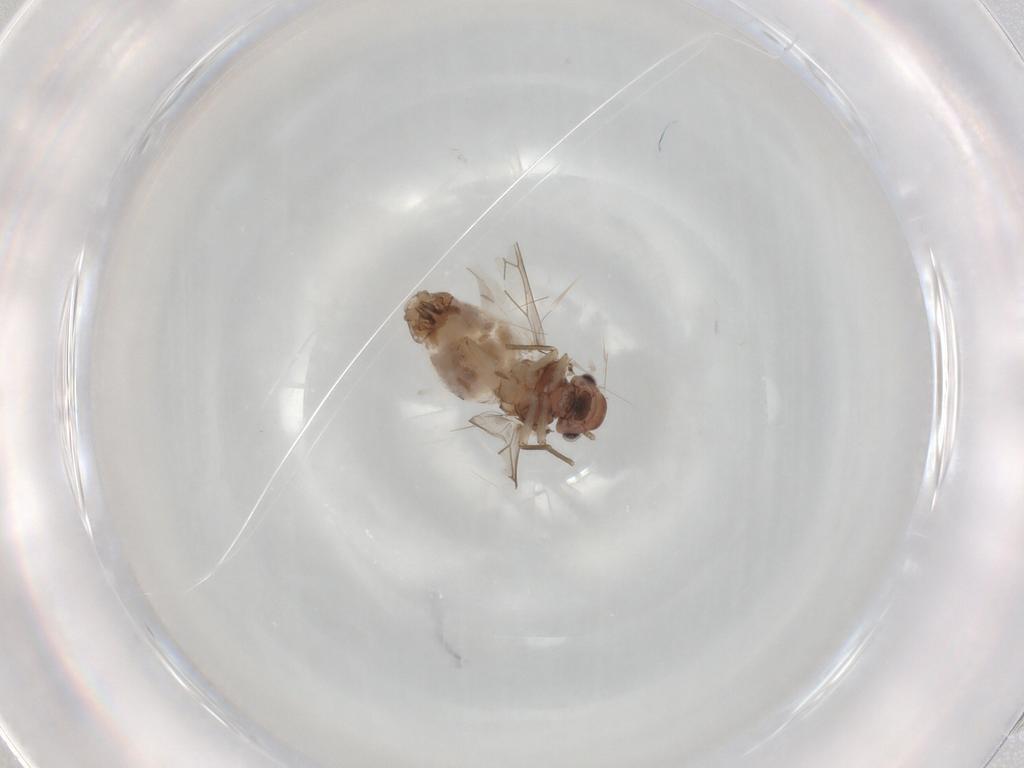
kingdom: Animalia
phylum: Arthropoda
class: Insecta
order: Psocodea
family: Peripsocidae
